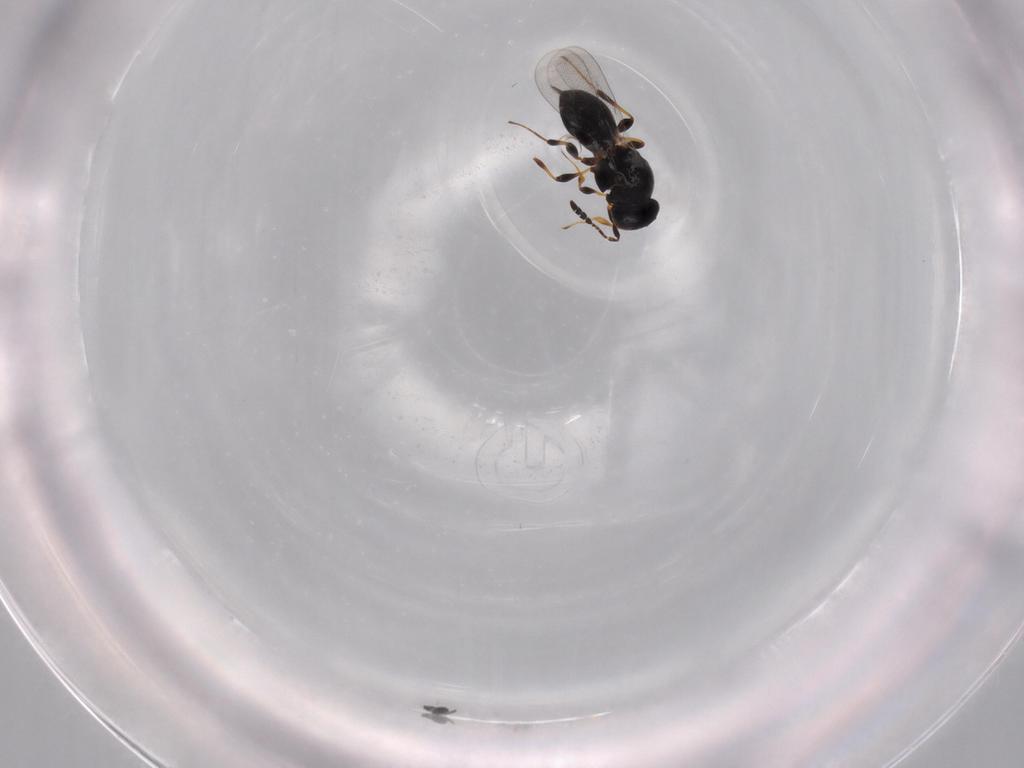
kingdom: Animalia
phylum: Arthropoda
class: Insecta
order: Hymenoptera
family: Platygastridae
